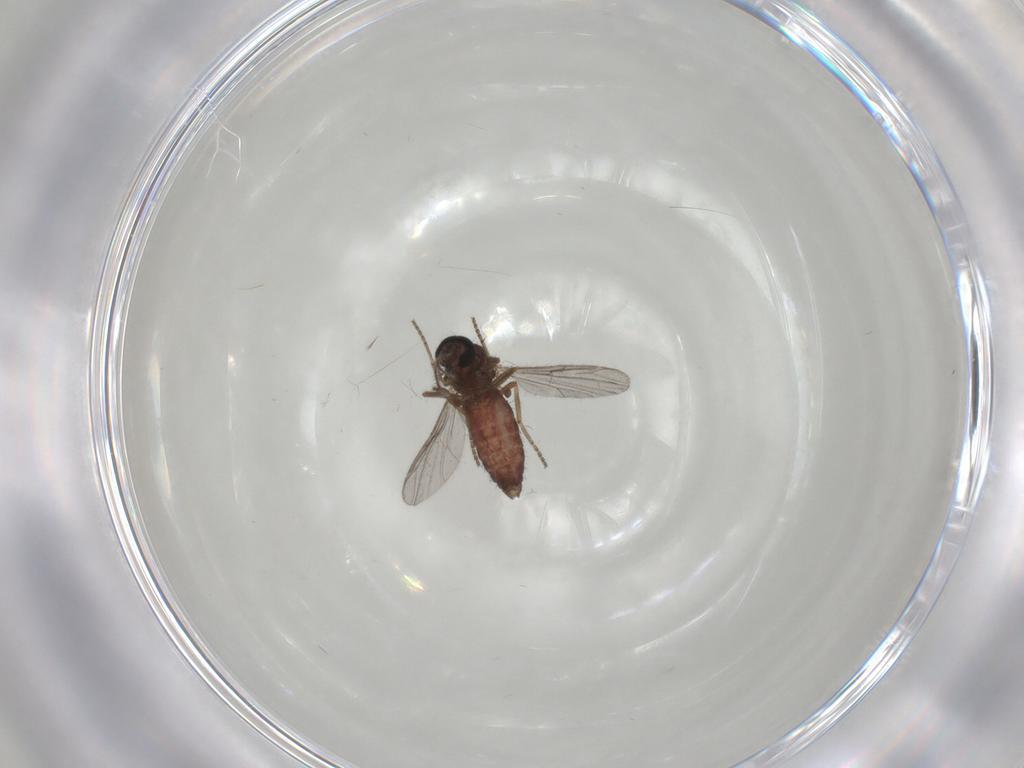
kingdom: Animalia
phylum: Arthropoda
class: Insecta
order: Diptera
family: Ceratopogonidae
